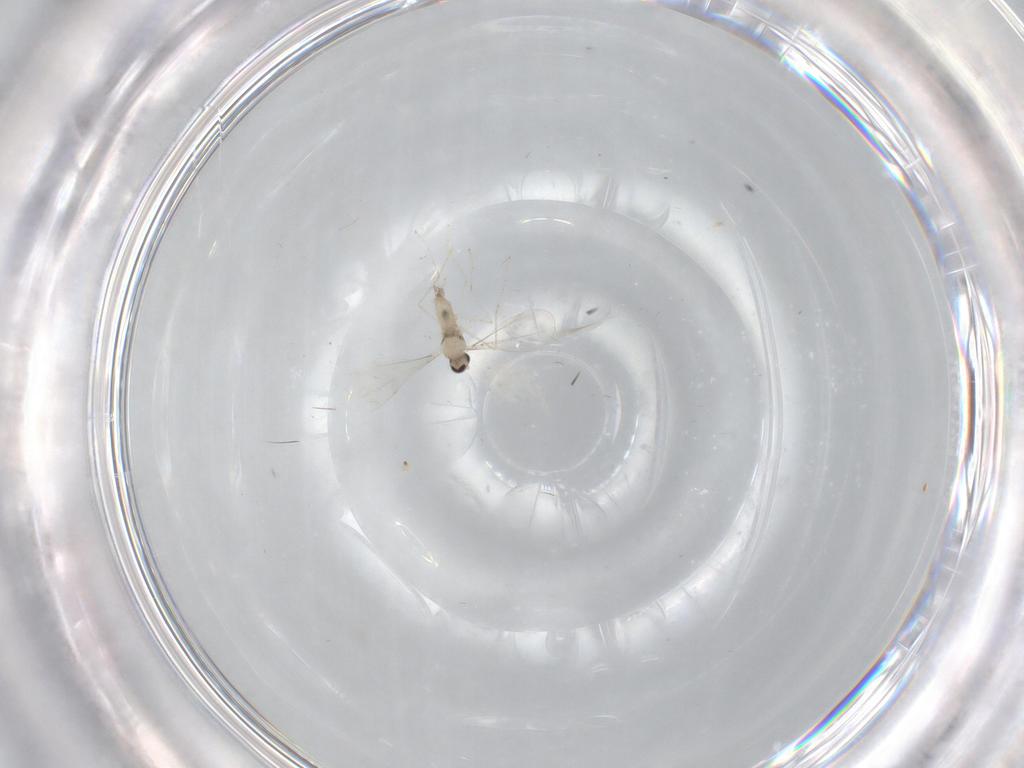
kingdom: Animalia
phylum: Arthropoda
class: Insecta
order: Diptera
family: Cecidomyiidae
